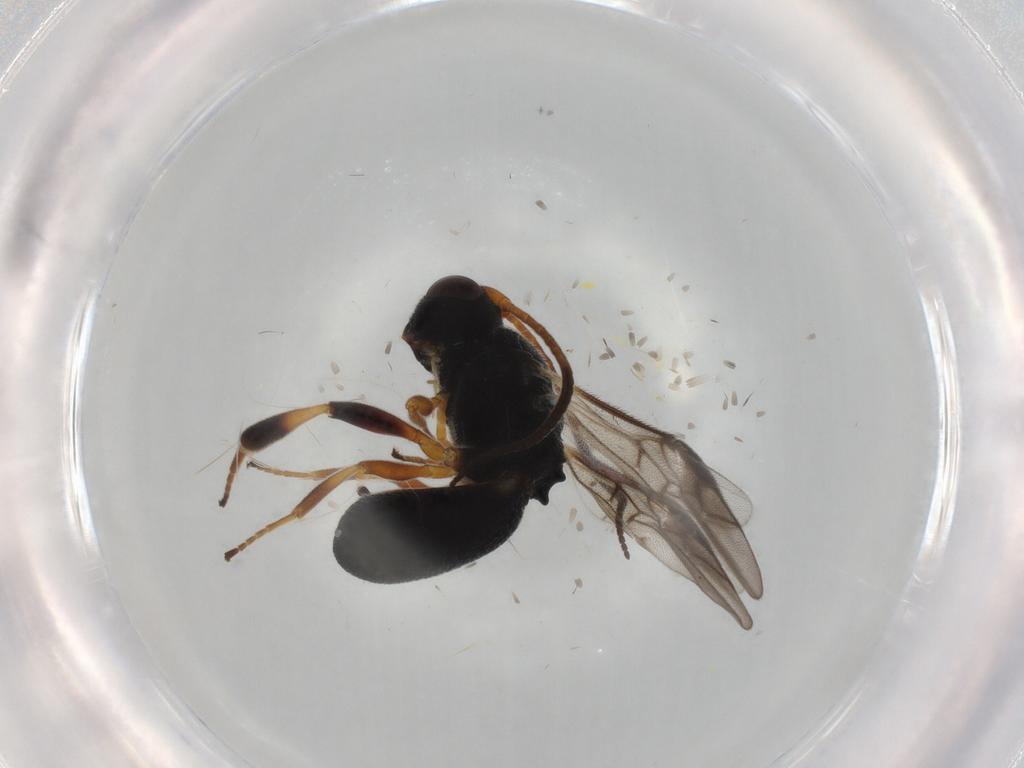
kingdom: Animalia
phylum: Arthropoda
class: Insecta
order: Hymenoptera
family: Braconidae
